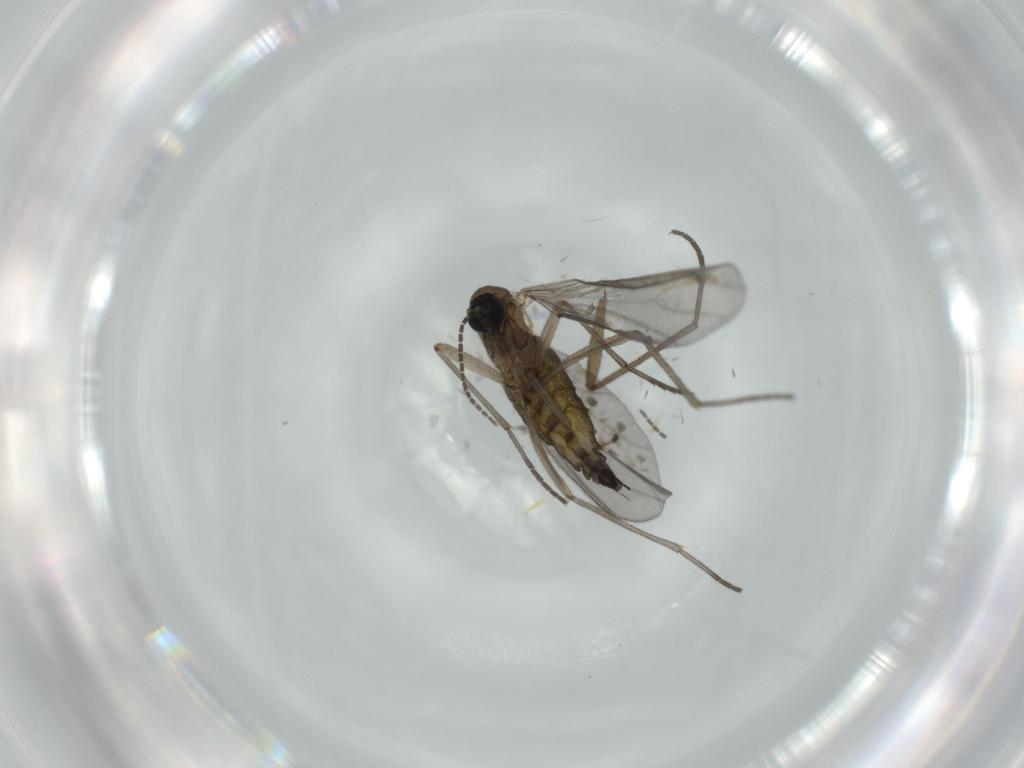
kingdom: Animalia
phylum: Arthropoda
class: Insecta
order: Diptera
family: Sciaridae
